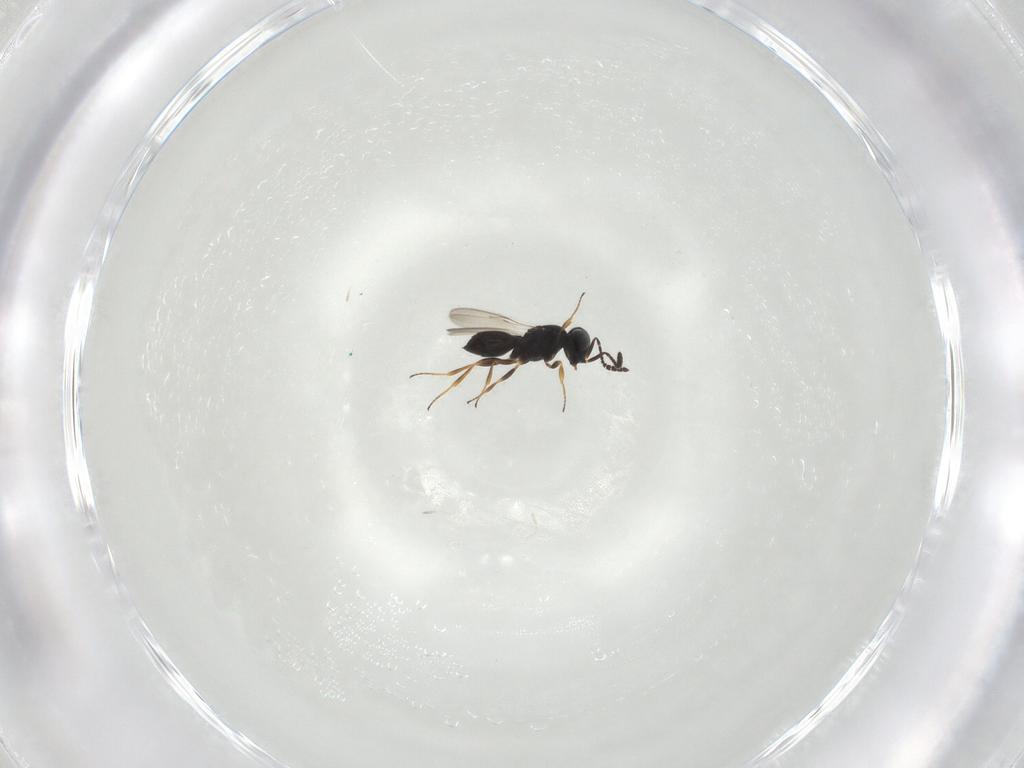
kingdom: Animalia
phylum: Arthropoda
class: Insecta
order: Hymenoptera
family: Scelionidae
